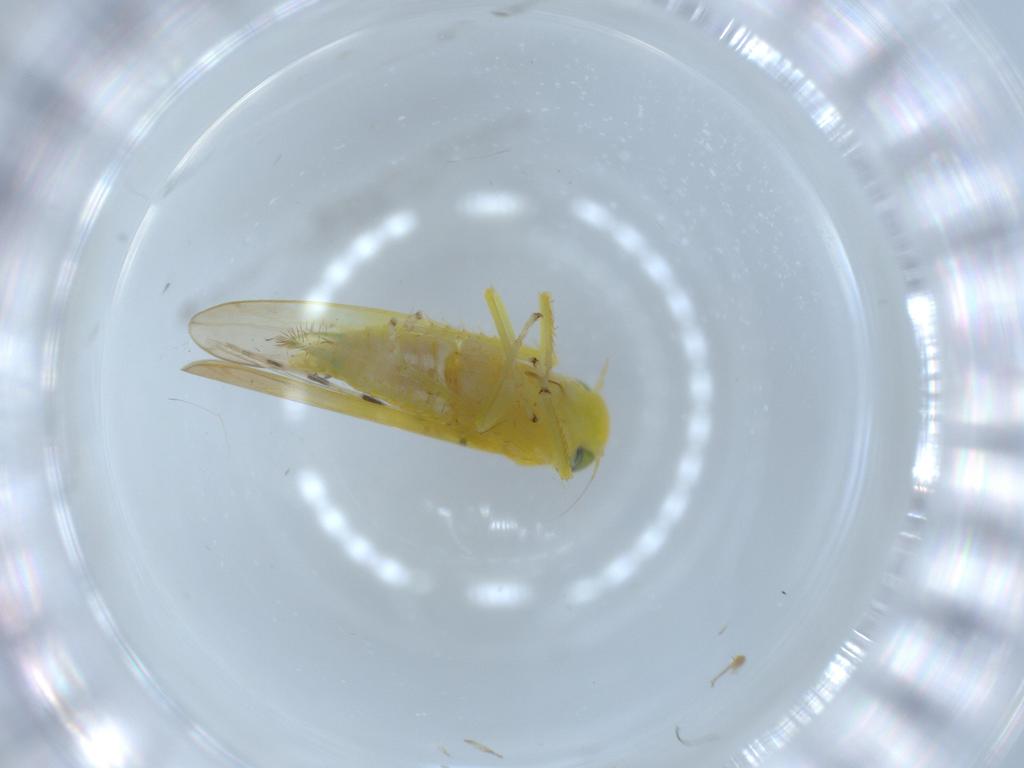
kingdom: Animalia
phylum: Arthropoda
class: Insecta
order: Hemiptera
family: Cicadellidae
